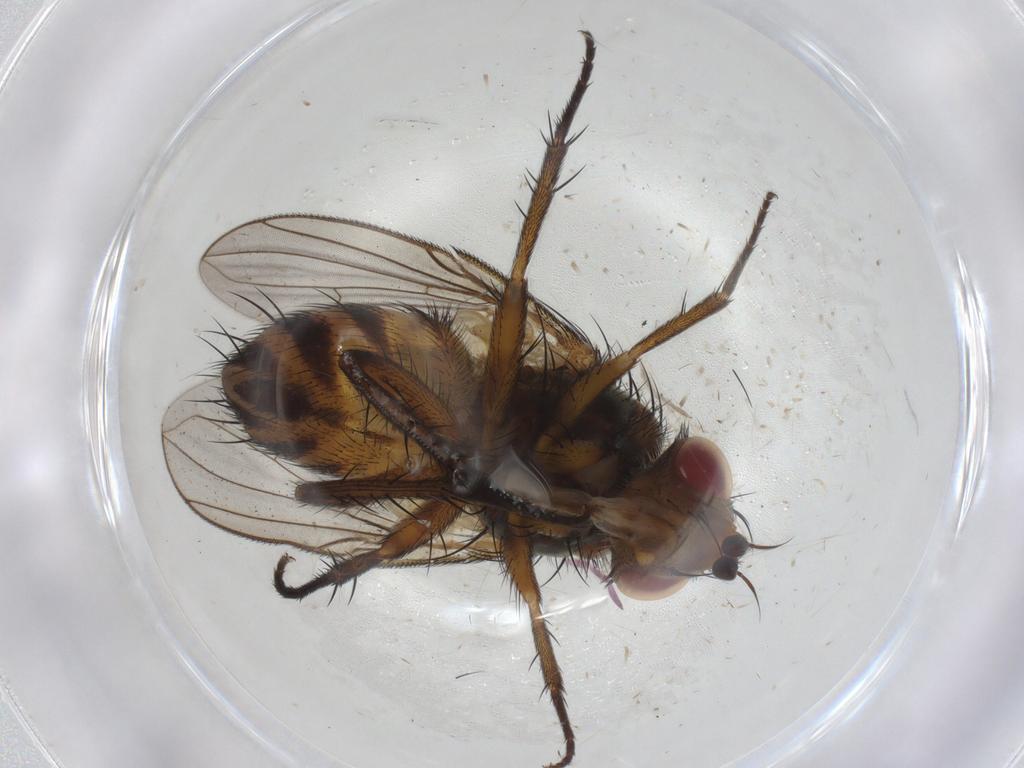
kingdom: Animalia
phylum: Arthropoda
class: Insecta
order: Diptera
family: Tachinidae
